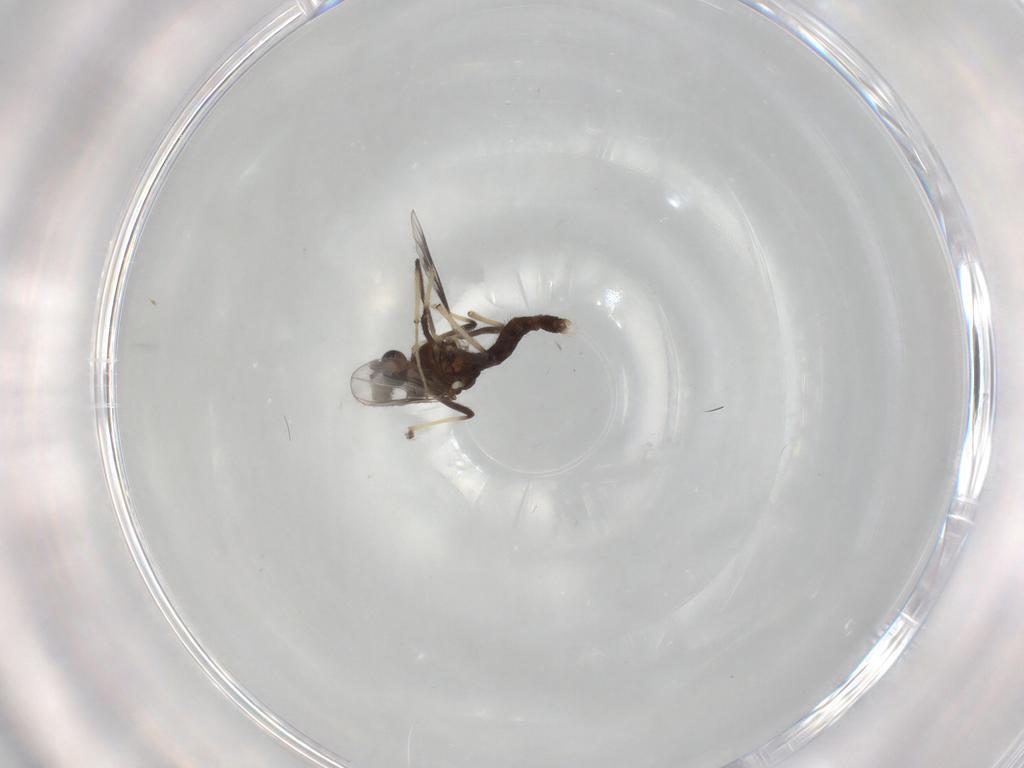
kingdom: Animalia
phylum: Arthropoda
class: Insecta
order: Diptera
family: Chironomidae
